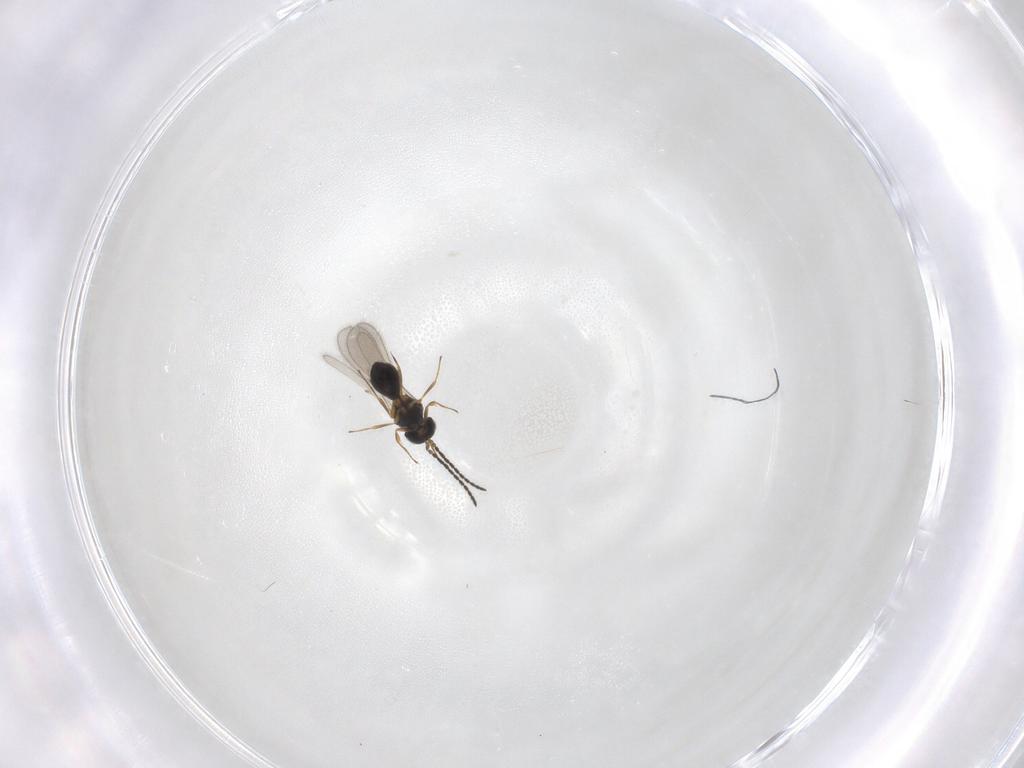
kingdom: Animalia
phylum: Arthropoda
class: Insecta
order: Hymenoptera
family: Scelionidae
